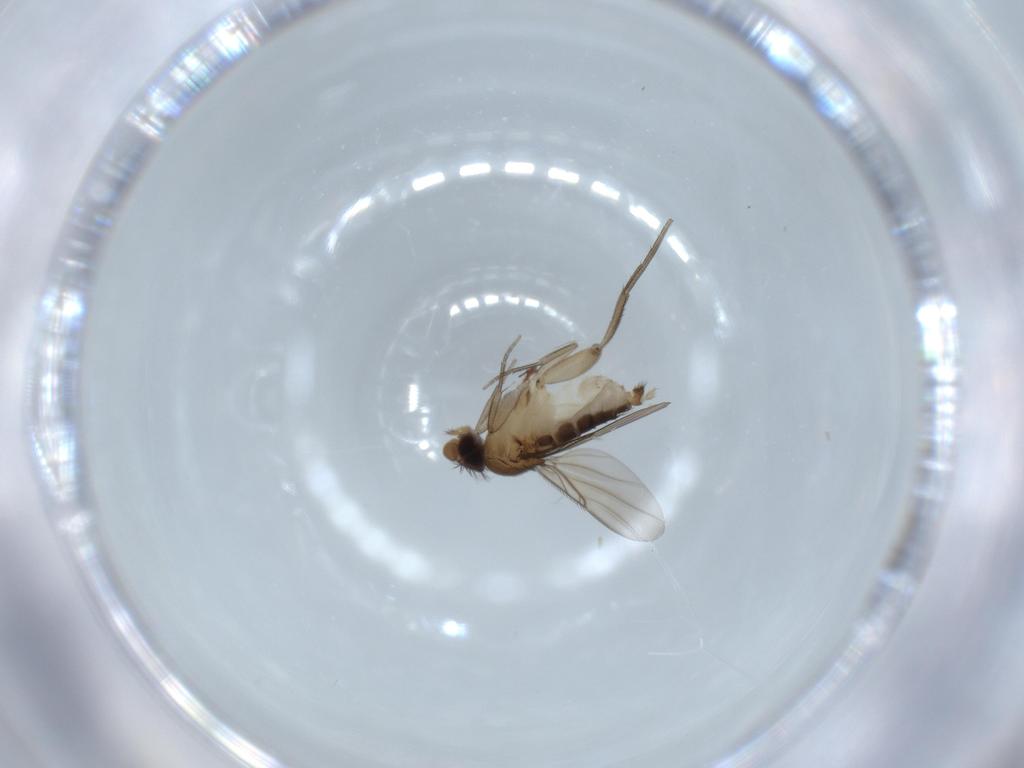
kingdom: Animalia
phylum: Arthropoda
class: Insecta
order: Diptera
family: Phoridae
